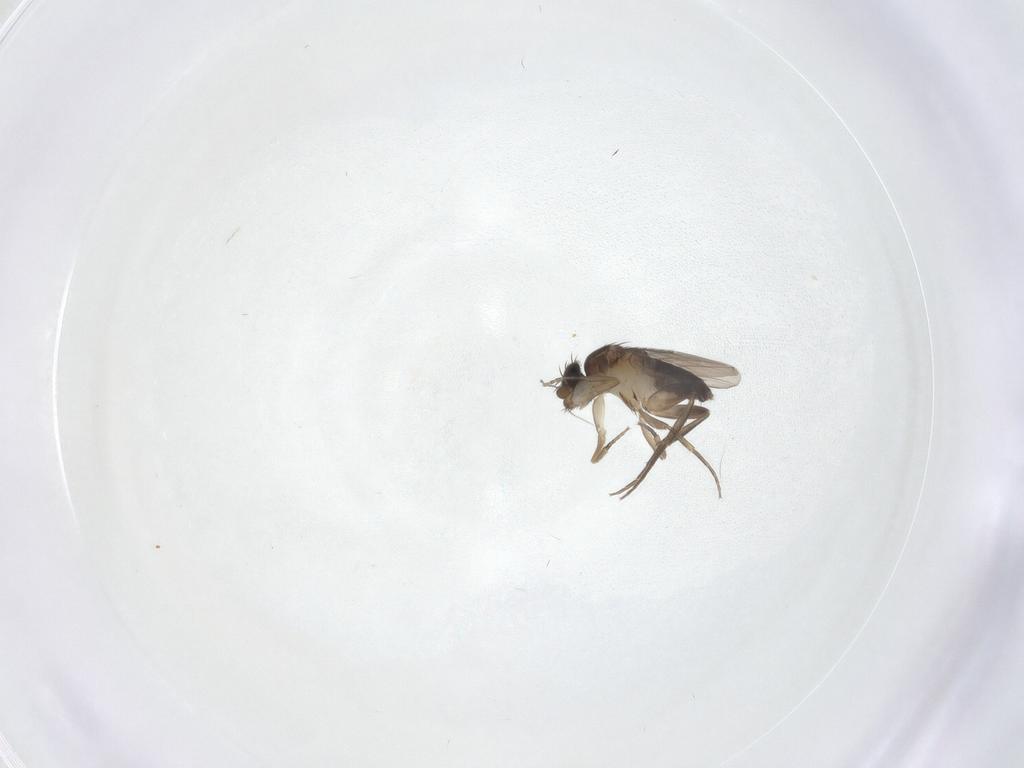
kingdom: Animalia
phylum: Arthropoda
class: Insecta
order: Diptera
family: Phoridae
